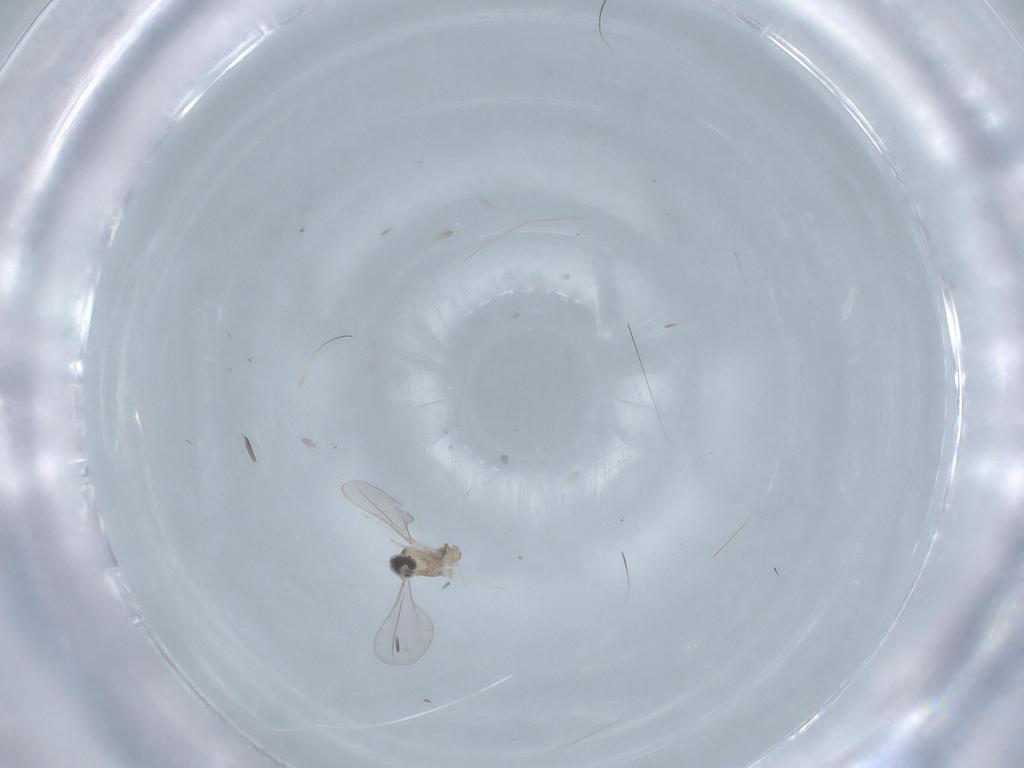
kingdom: Animalia
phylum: Arthropoda
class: Insecta
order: Diptera
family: Cecidomyiidae
